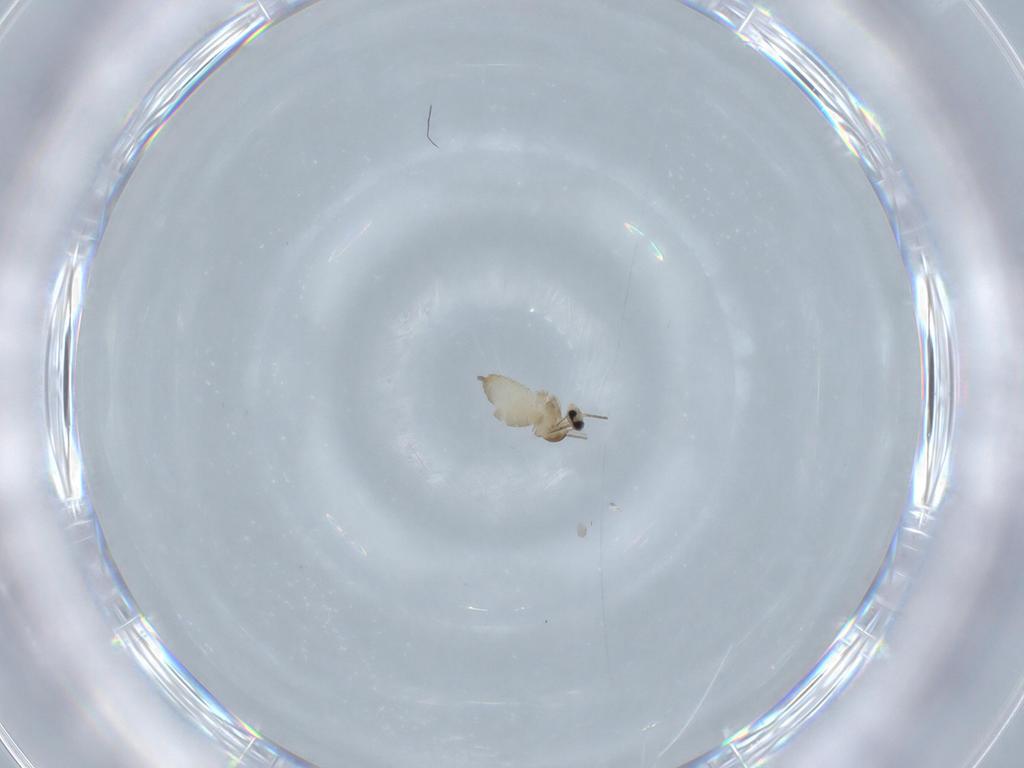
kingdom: Animalia
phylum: Arthropoda
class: Insecta
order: Diptera
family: Cecidomyiidae
